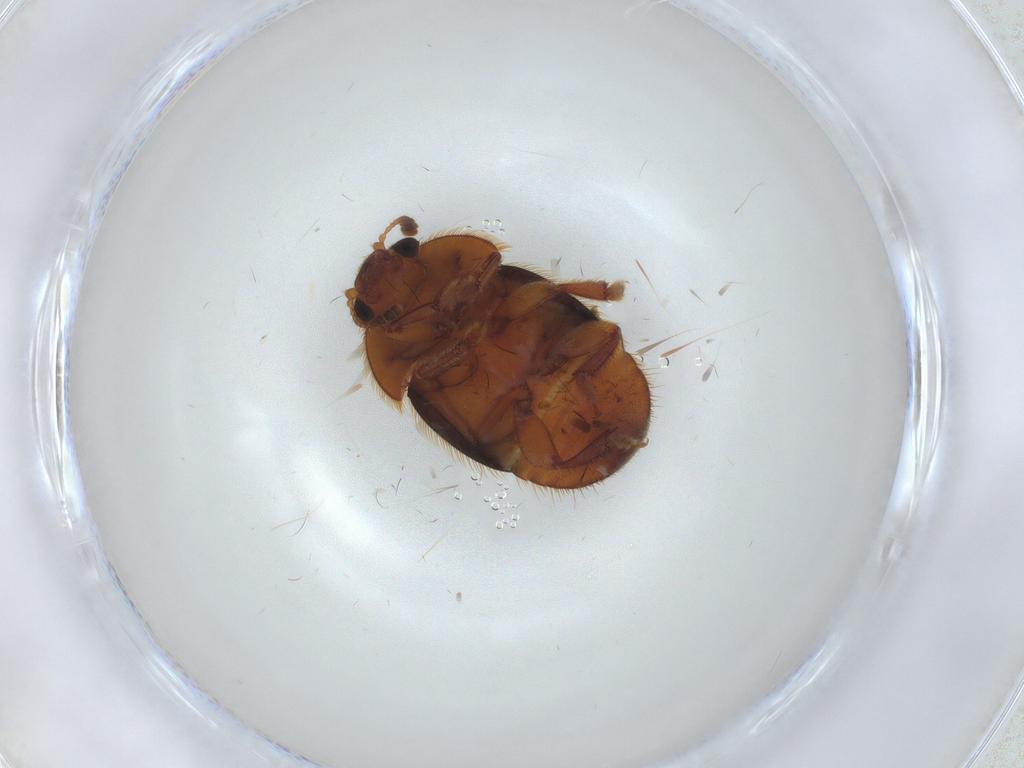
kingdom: Animalia
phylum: Arthropoda
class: Insecta
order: Coleoptera
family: Nitidulidae
